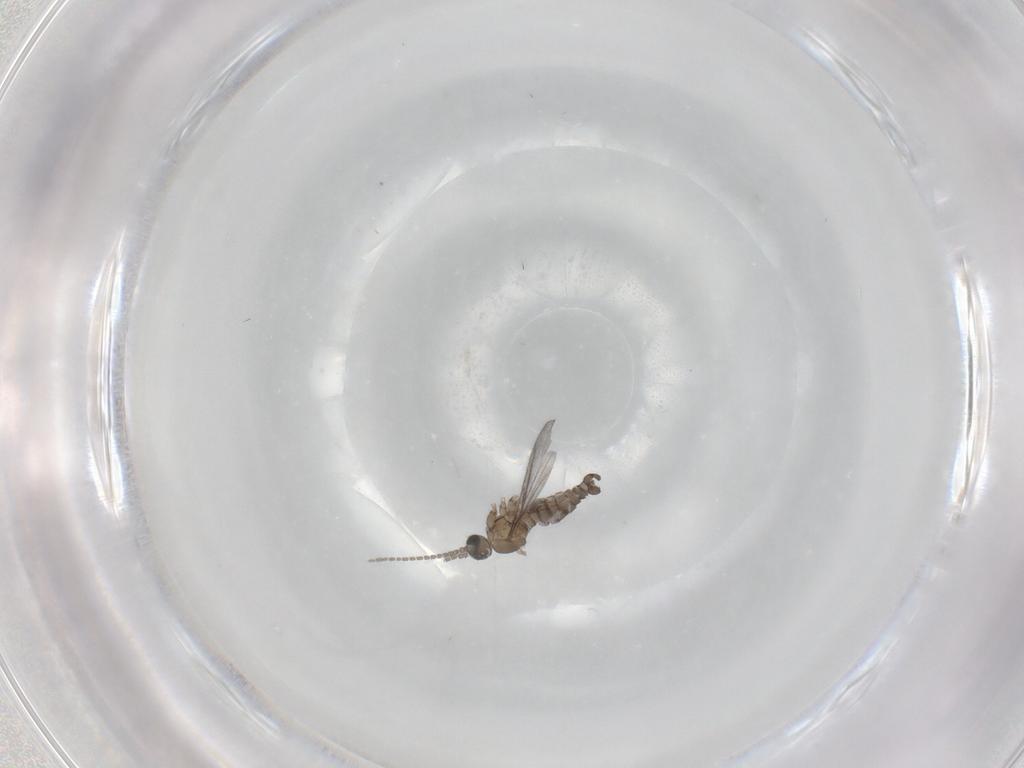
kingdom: Animalia
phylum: Arthropoda
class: Insecta
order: Diptera
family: Sciaridae
